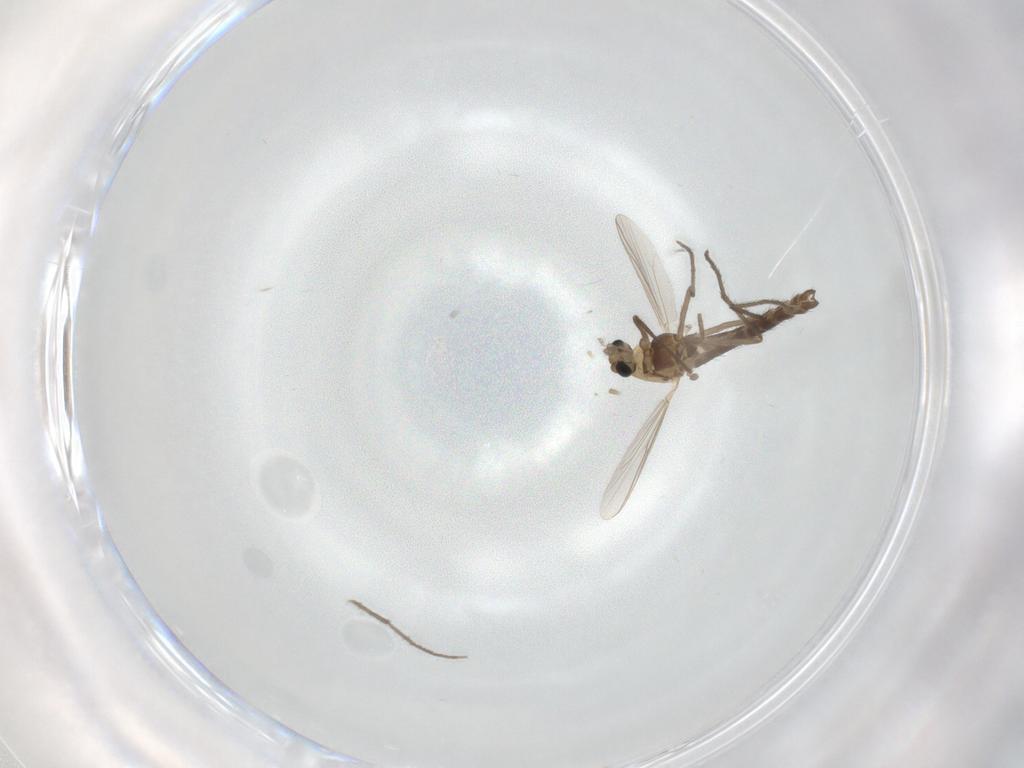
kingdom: Animalia
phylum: Arthropoda
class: Insecta
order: Diptera
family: Chironomidae
